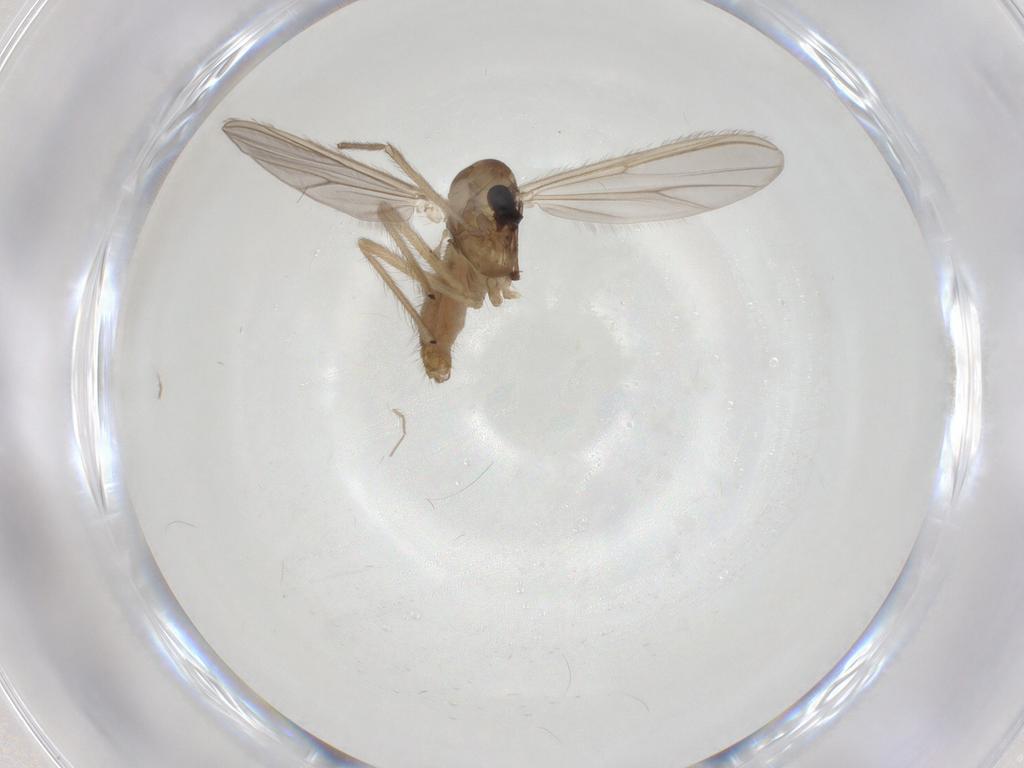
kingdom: Animalia
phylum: Arthropoda
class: Insecta
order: Diptera
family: Chironomidae
